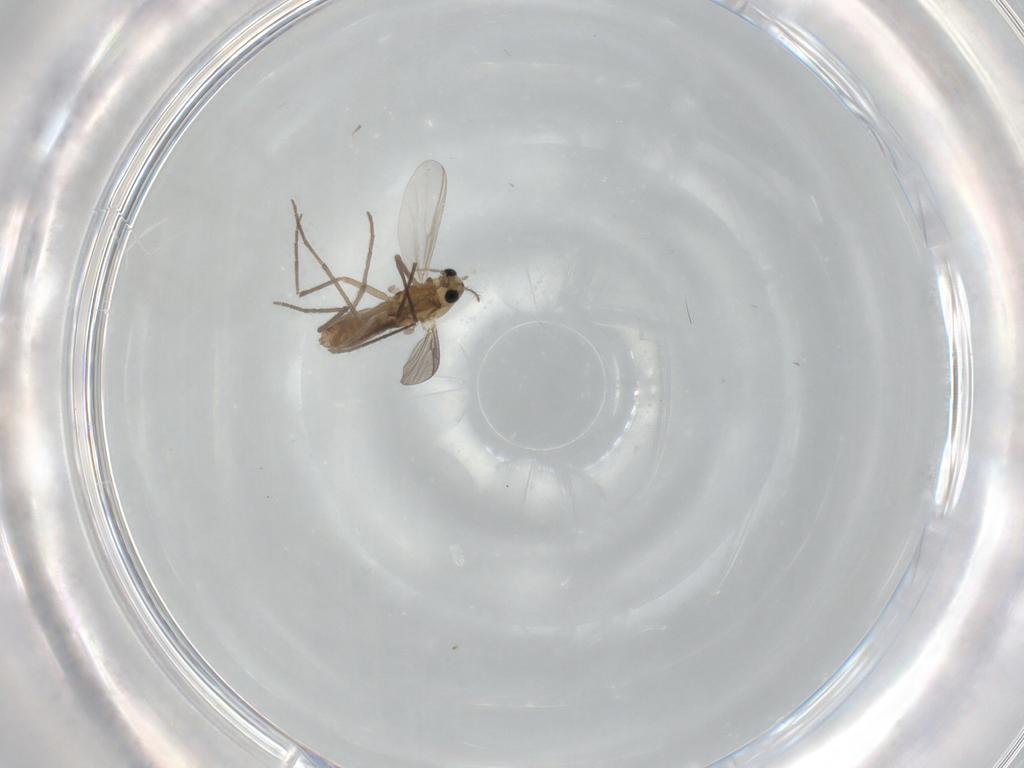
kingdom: Animalia
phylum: Arthropoda
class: Insecta
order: Diptera
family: Chironomidae
